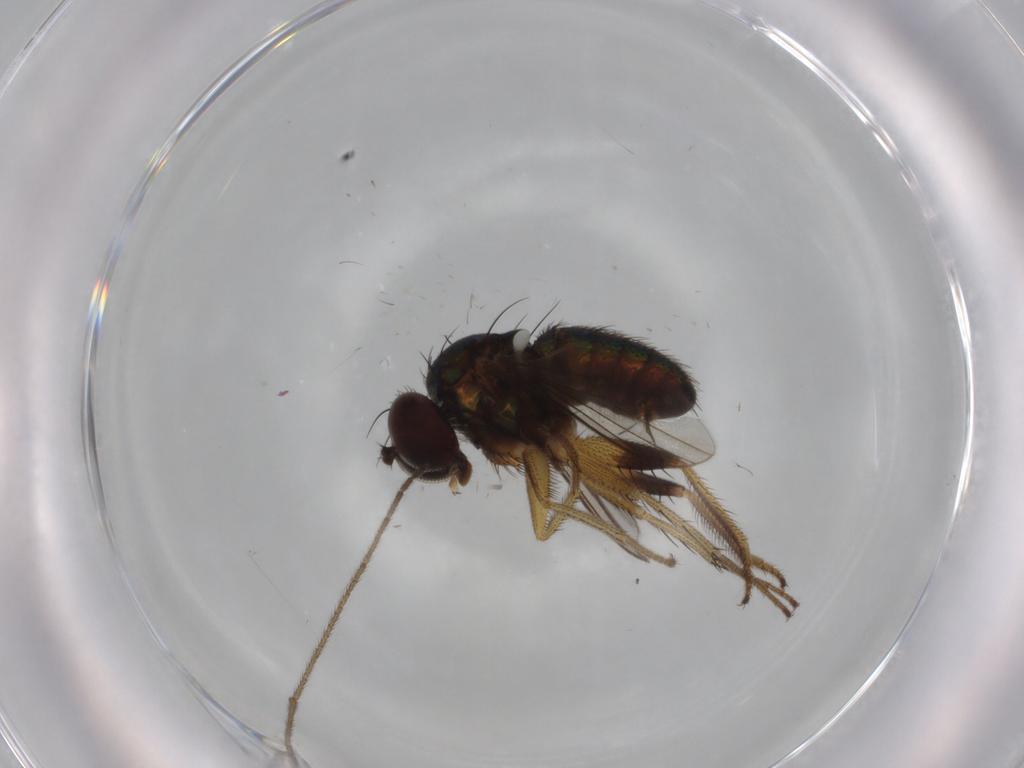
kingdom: Animalia
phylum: Arthropoda
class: Insecta
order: Diptera
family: Dolichopodidae
